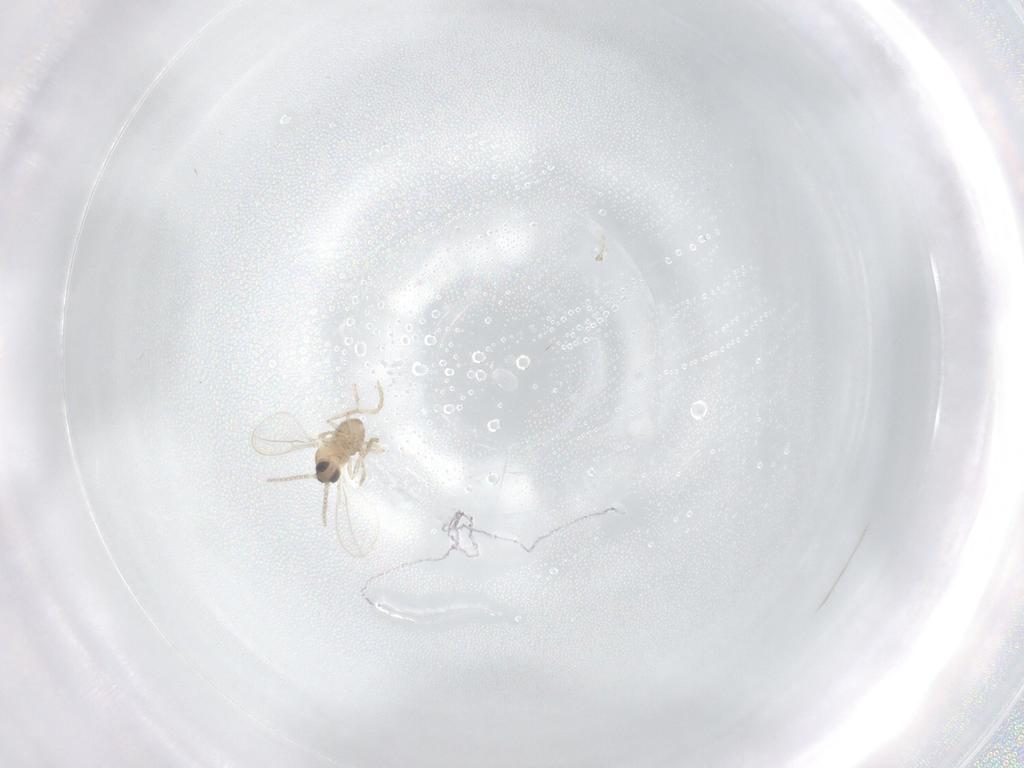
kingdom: Animalia
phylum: Arthropoda
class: Insecta
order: Diptera
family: Cecidomyiidae
